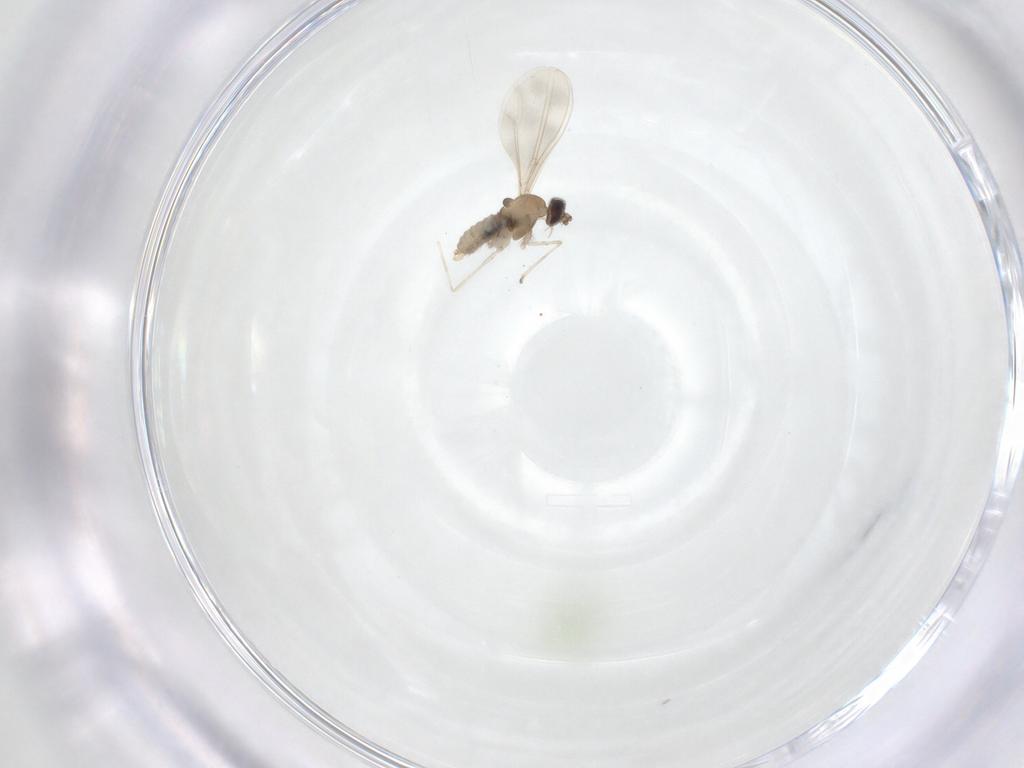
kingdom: Animalia
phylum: Arthropoda
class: Insecta
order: Diptera
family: Cecidomyiidae
